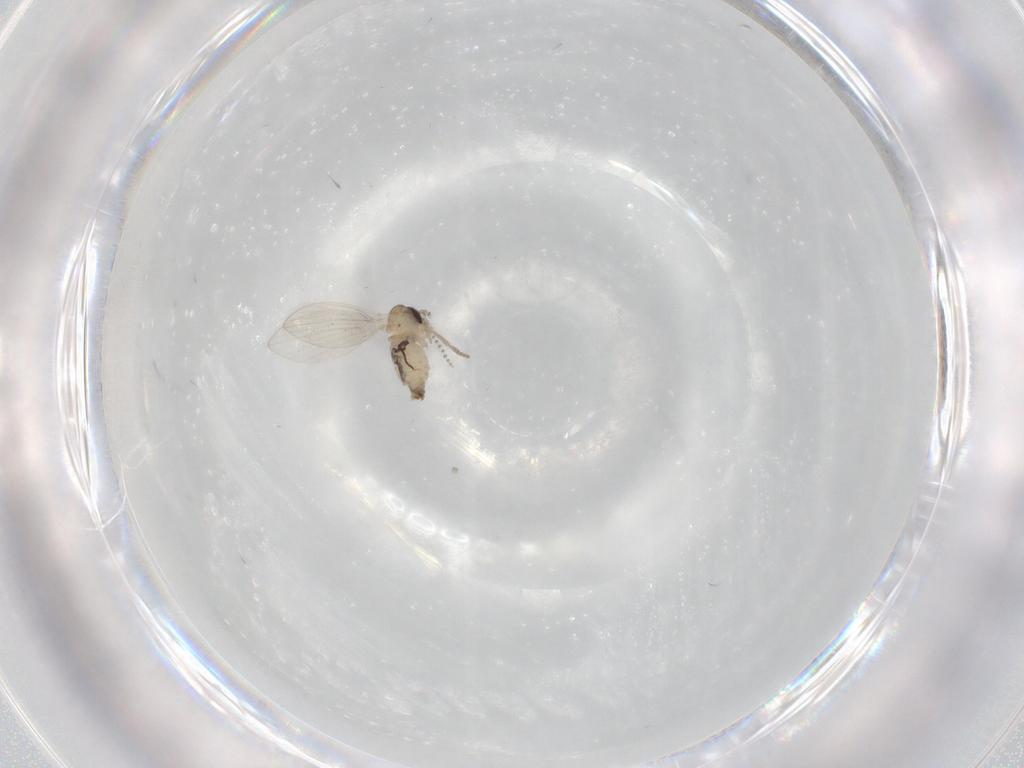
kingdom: Animalia
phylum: Arthropoda
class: Insecta
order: Diptera
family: Psychodidae
